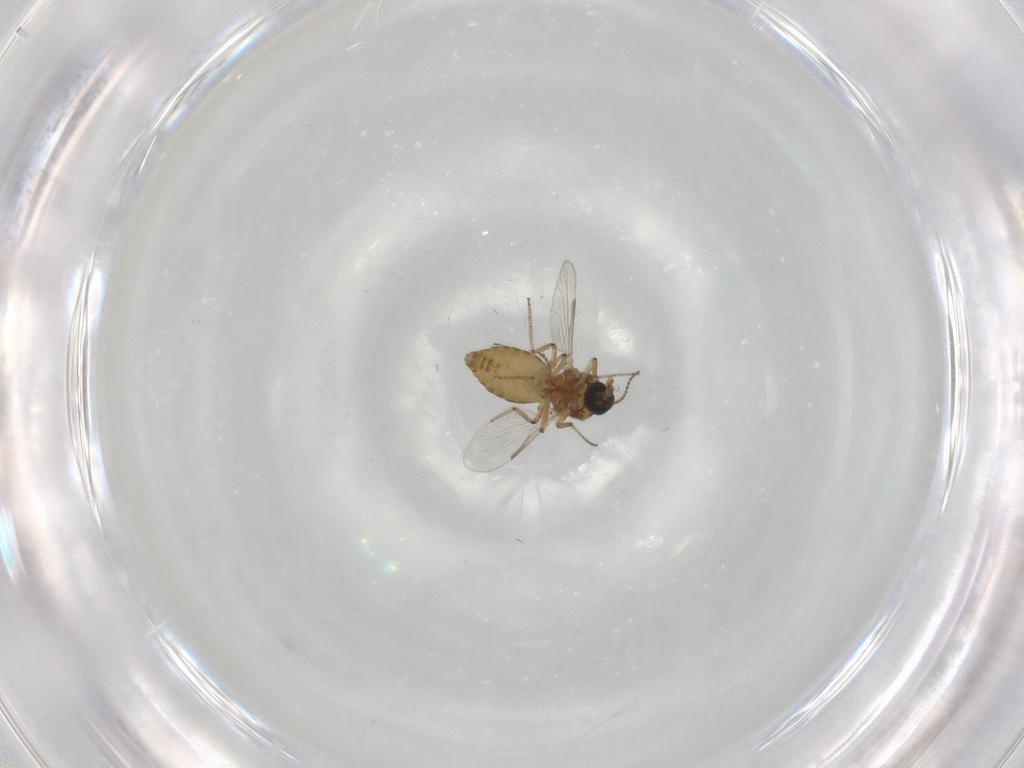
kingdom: Animalia
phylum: Arthropoda
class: Insecta
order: Diptera
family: Ceratopogonidae
